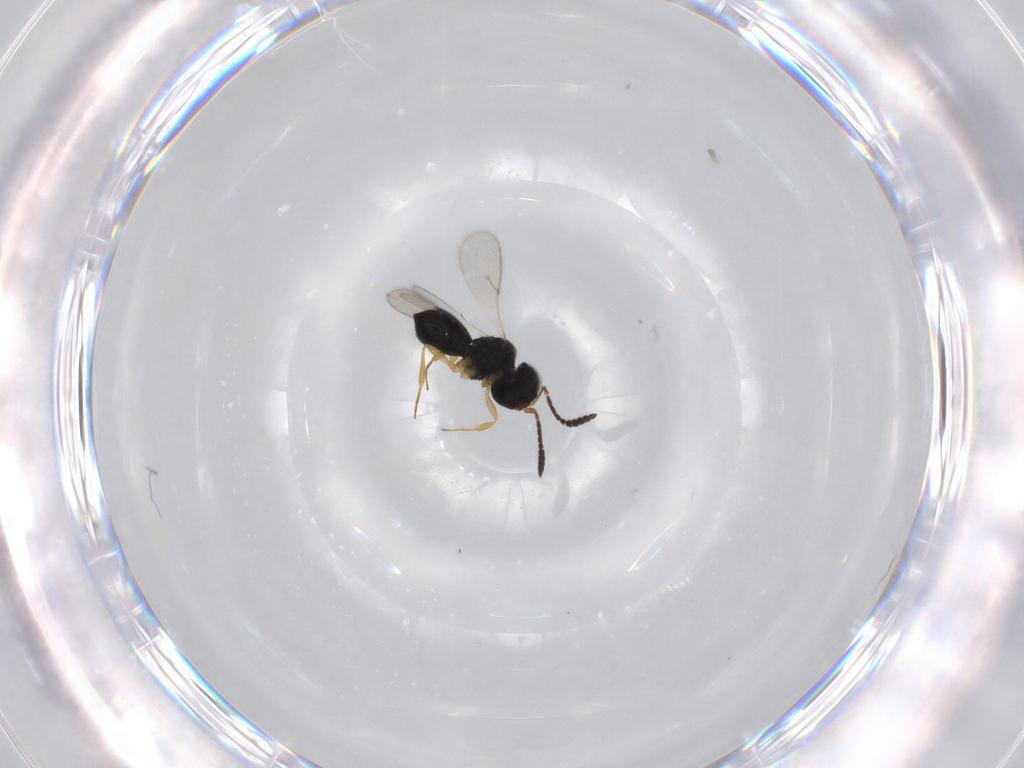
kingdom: Animalia
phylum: Arthropoda
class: Insecta
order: Hymenoptera
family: Scelionidae
